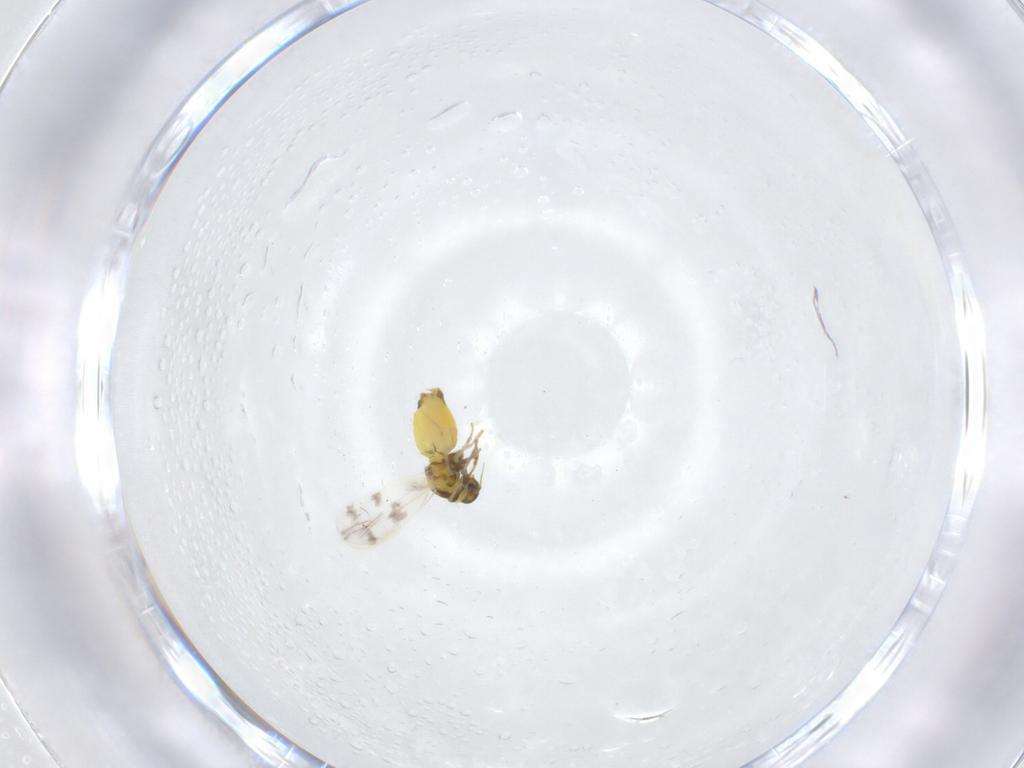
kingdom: Animalia
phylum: Arthropoda
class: Insecta
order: Hemiptera
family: Aleyrodidae
